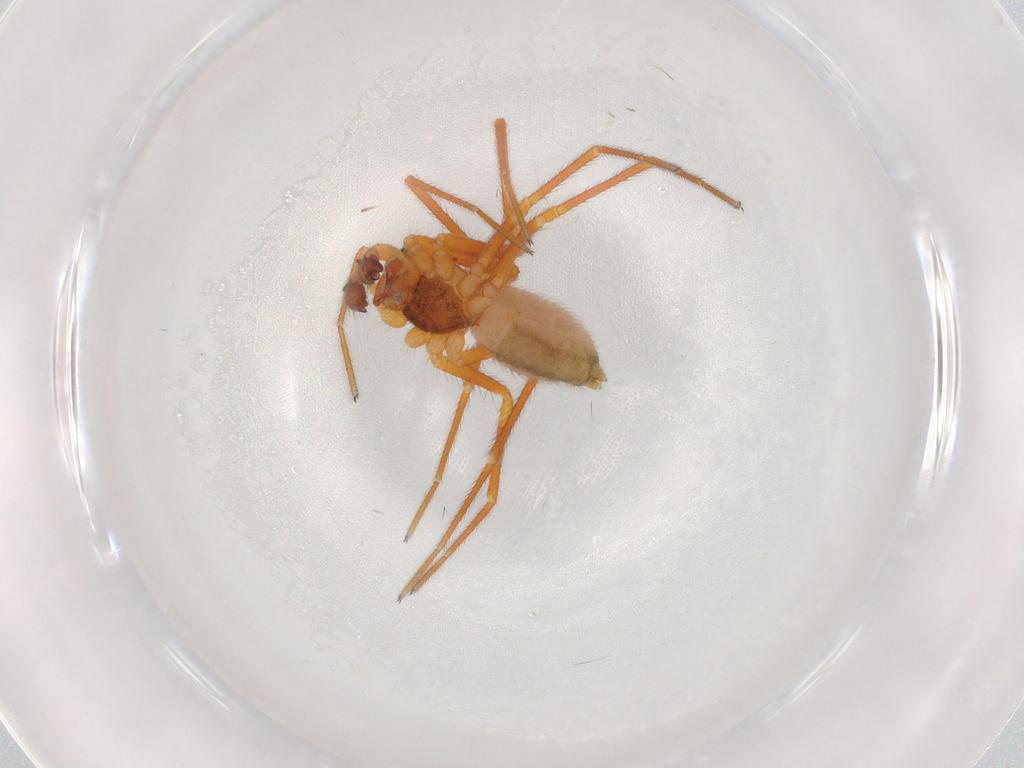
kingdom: Animalia
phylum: Arthropoda
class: Arachnida
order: Araneae
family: Linyphiidae
